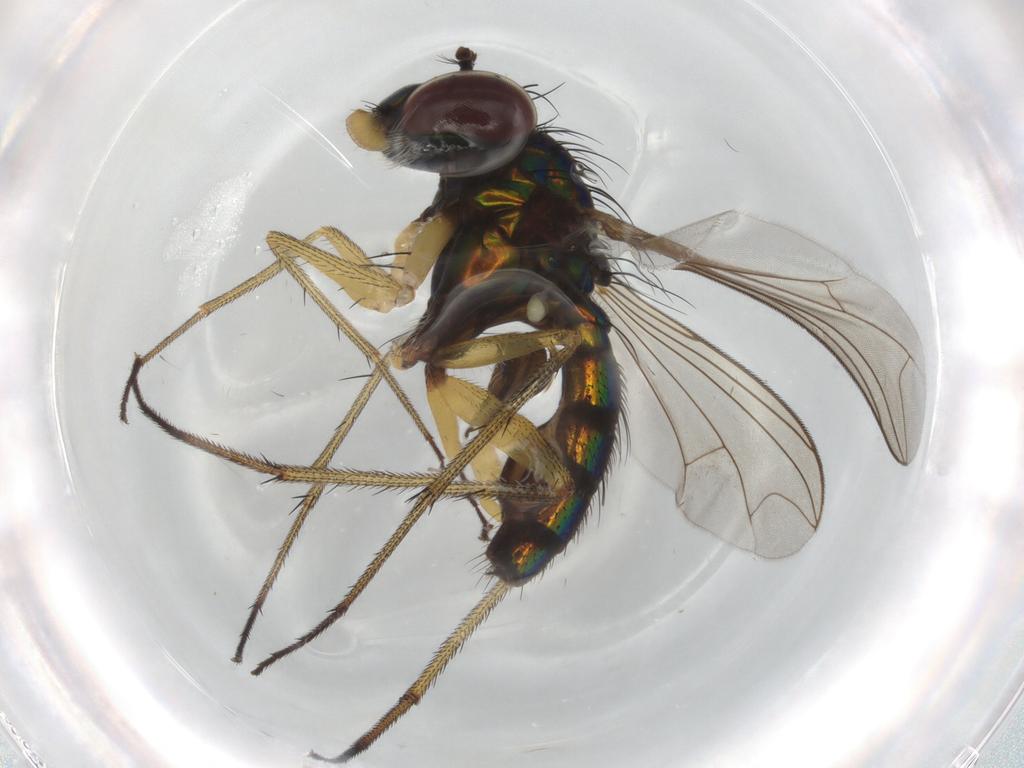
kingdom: Animalia
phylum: Arthropoda
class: Insecta
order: Diptera
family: Dolichopodidae
